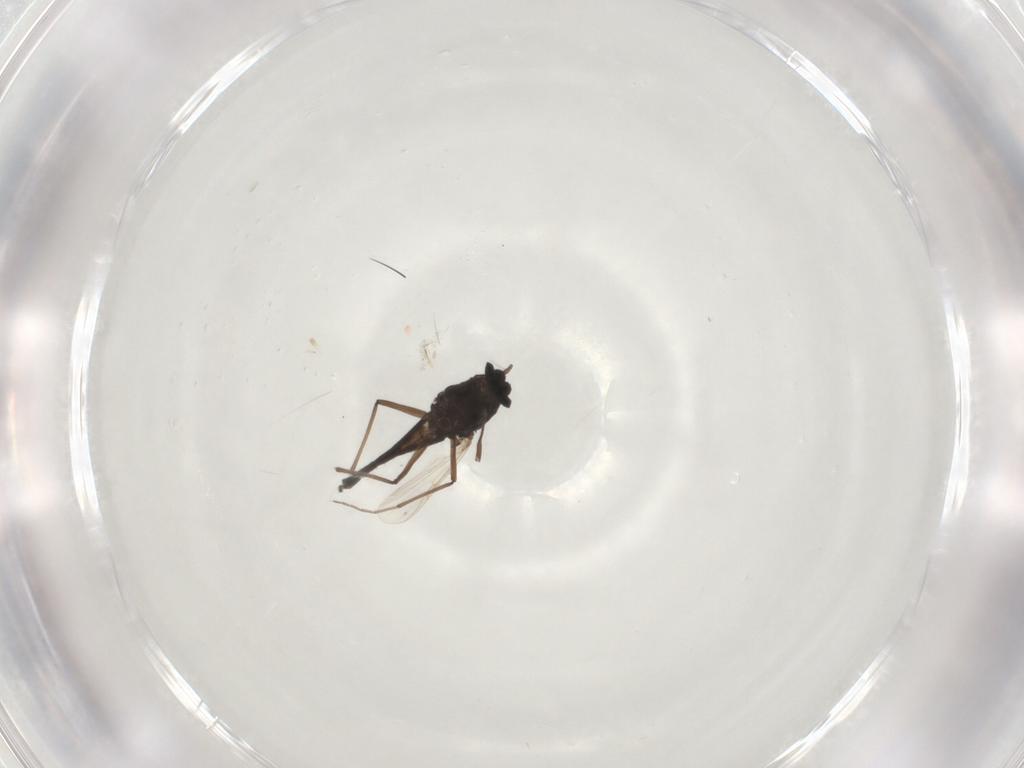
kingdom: Animalia
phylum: Arthropoda
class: Insecta
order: Diptera
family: Chironomidae
